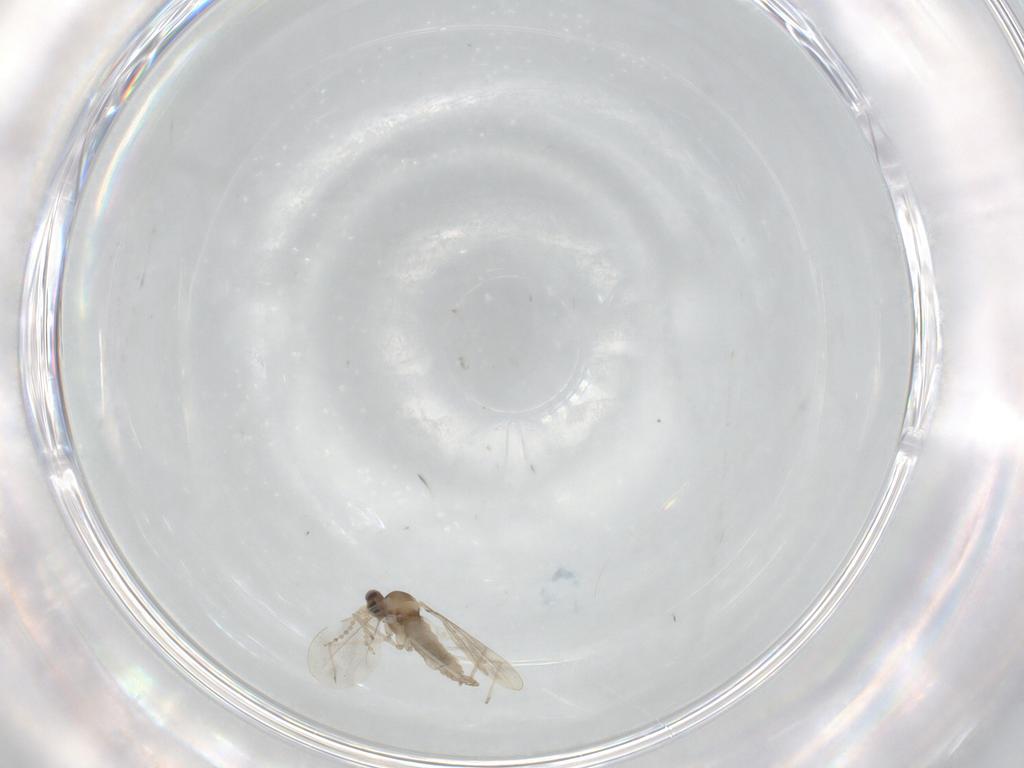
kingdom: Animalia
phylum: Arthropoda
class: Insecta
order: Diptera
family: Cecidomyiidae
